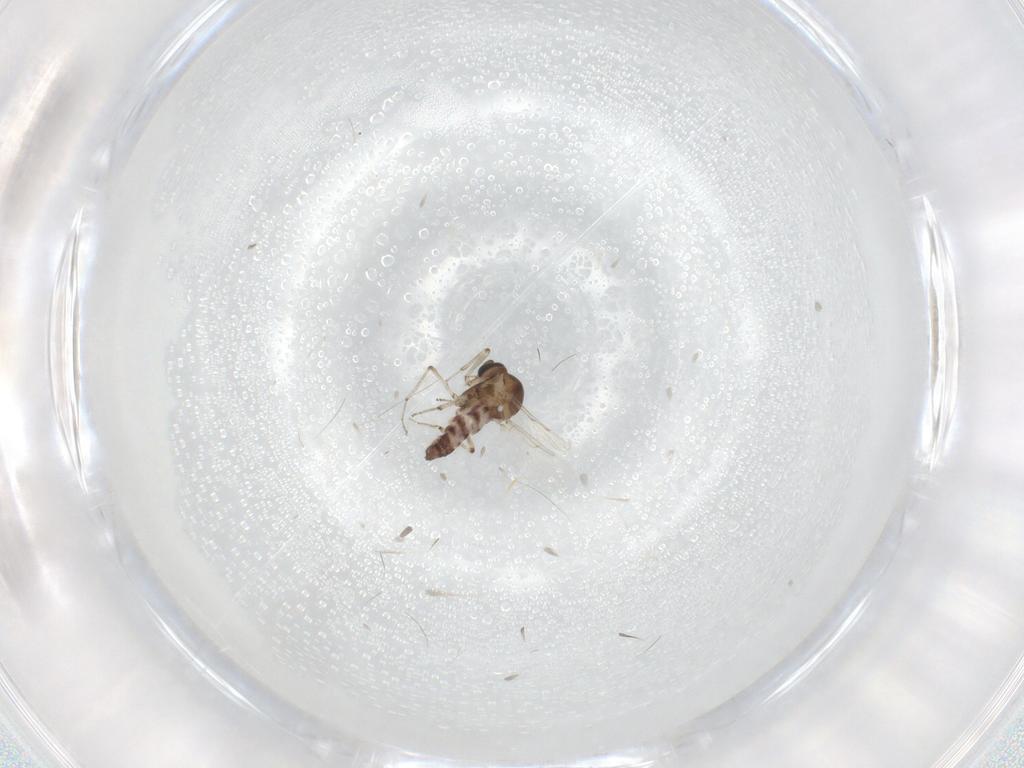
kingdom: Animalia
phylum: Arthropoda
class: Insecta
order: Diptera
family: Ceratopogonidae
